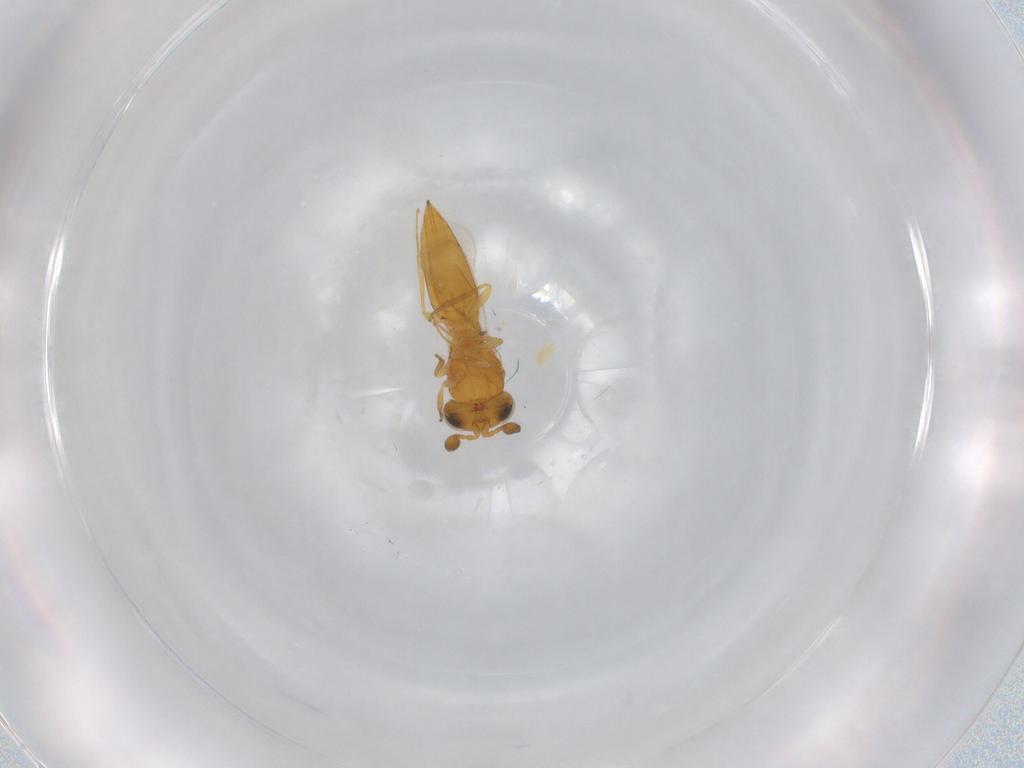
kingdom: Animalia
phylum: Arthropoda
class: Insecta
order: Hymenoptera
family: Scelionidae
